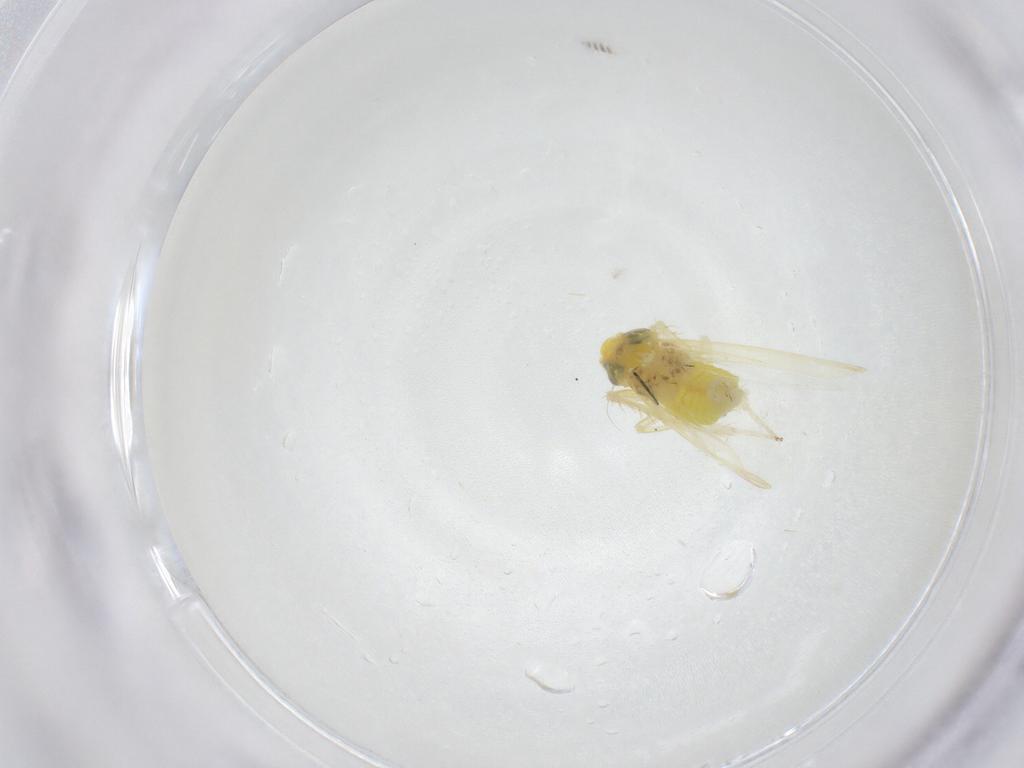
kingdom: Animalia
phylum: Arthropoda
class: Insecta
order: Hemiptera
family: Cicadellidae
